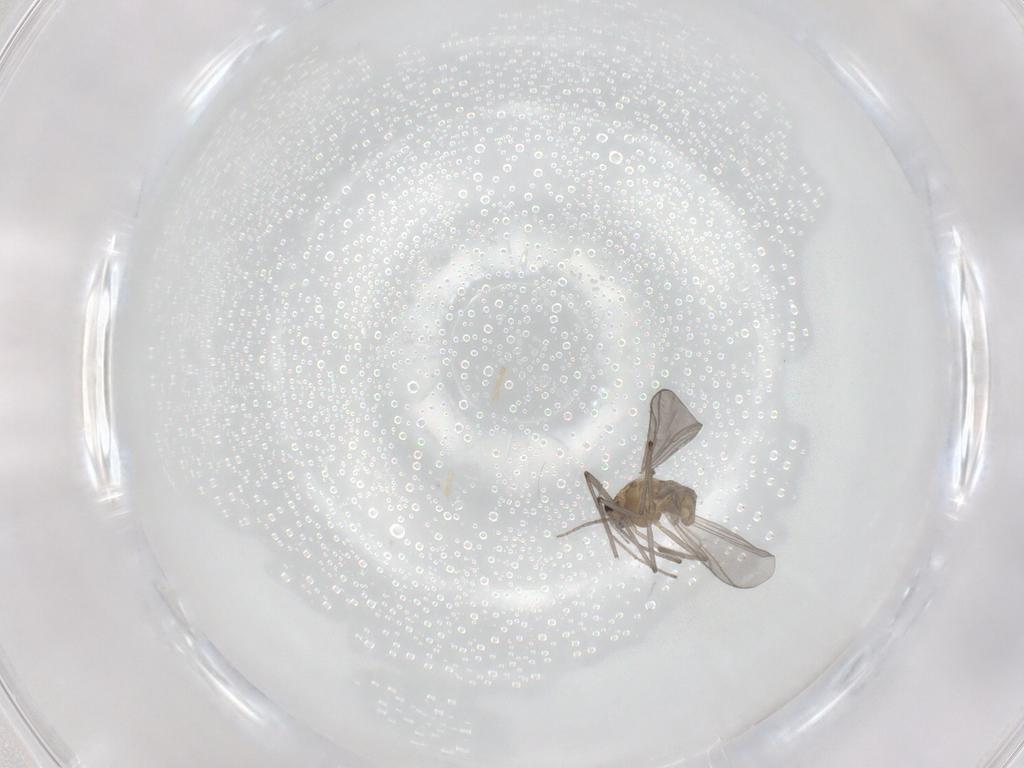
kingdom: Animalia
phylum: Arthropoda
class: Insecta
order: Diptera
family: Chironomidae
